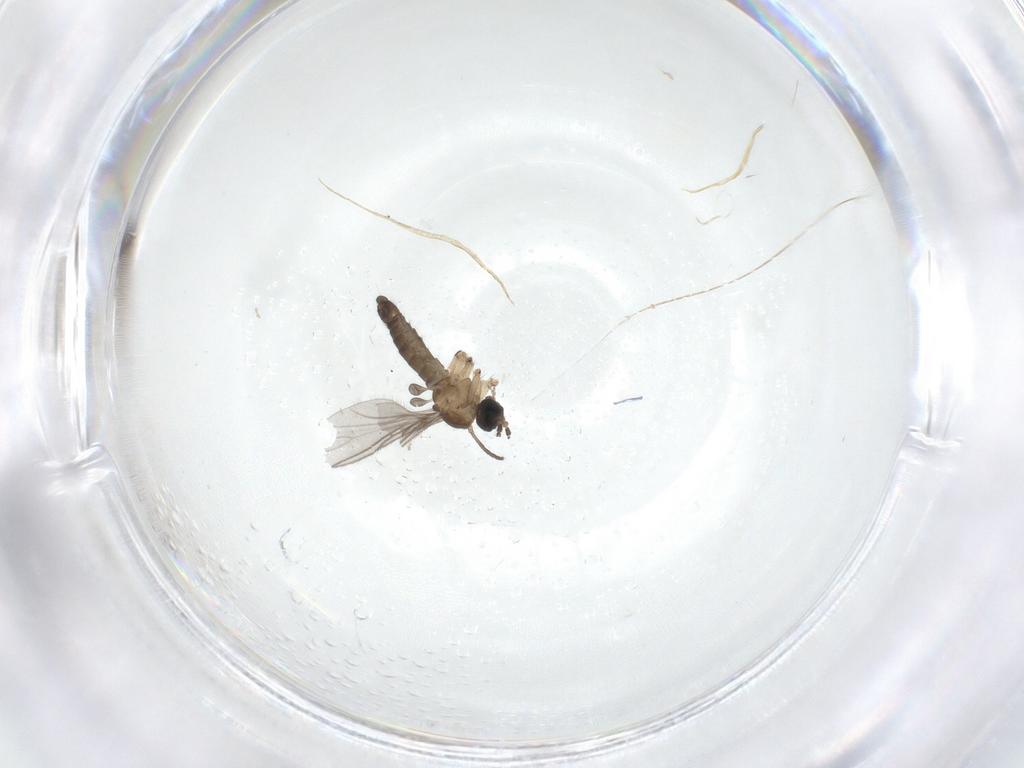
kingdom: Animalia
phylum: Arthropoda
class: Insecta
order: Diptera
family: Sciaridae
